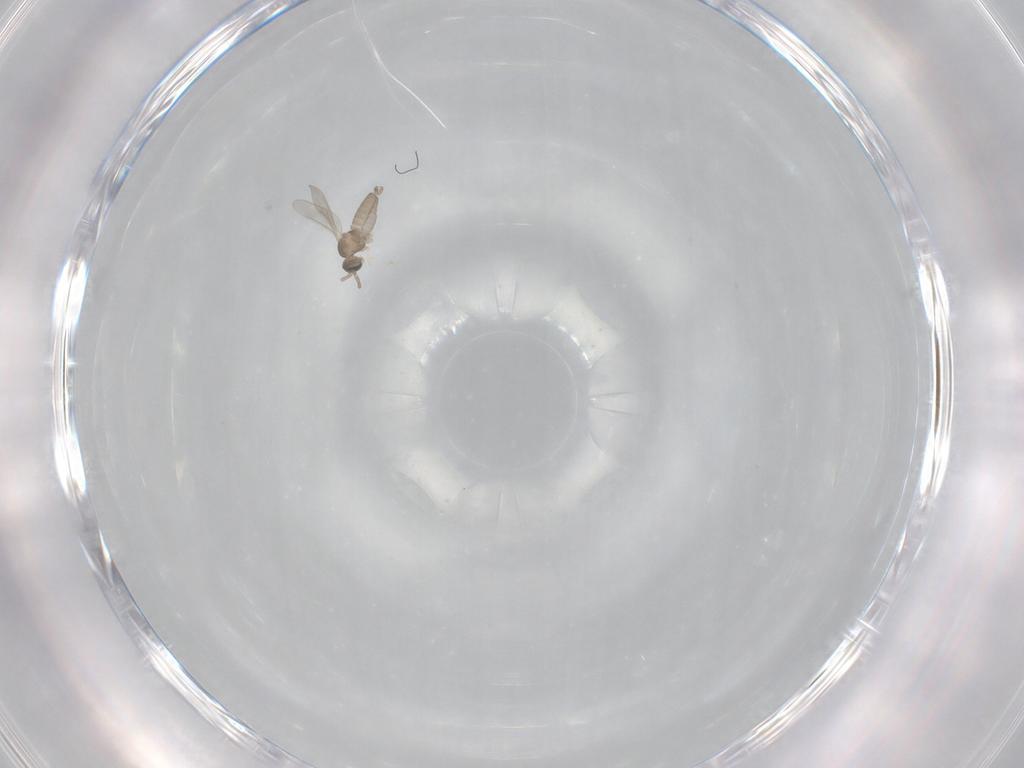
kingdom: Animalia
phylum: Arthropoda
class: Insecta
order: Diptera
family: Cecidomyiidae
